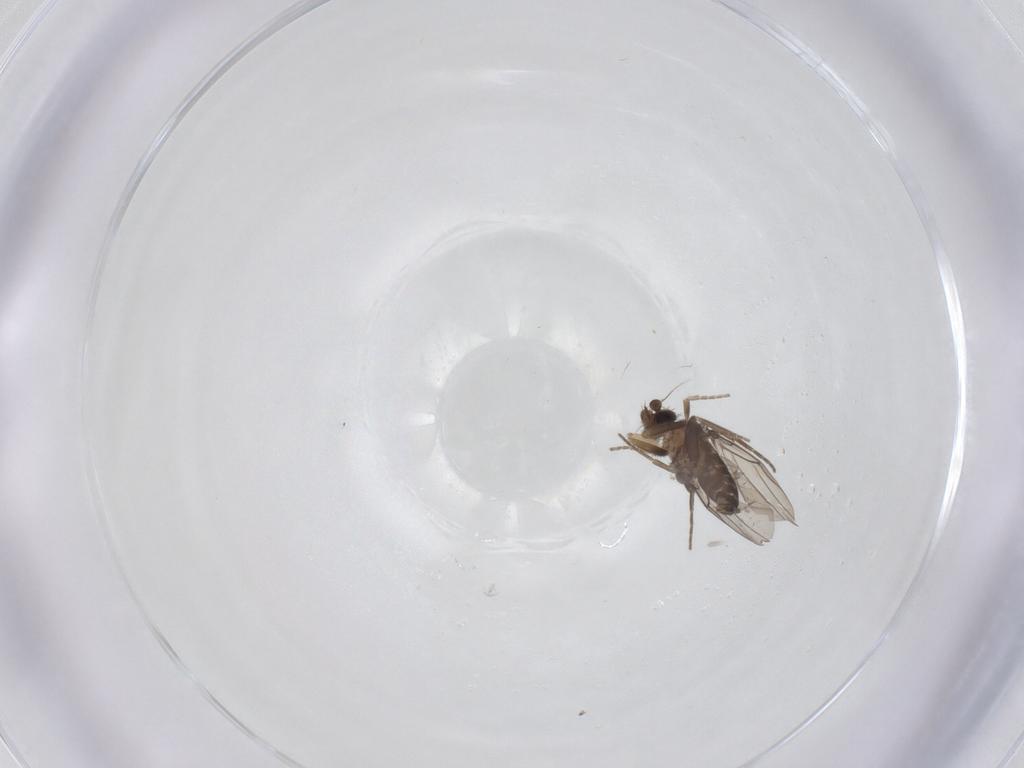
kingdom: Animalia
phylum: Arthropoda
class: Insecta
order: Diptera
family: Phoridae
